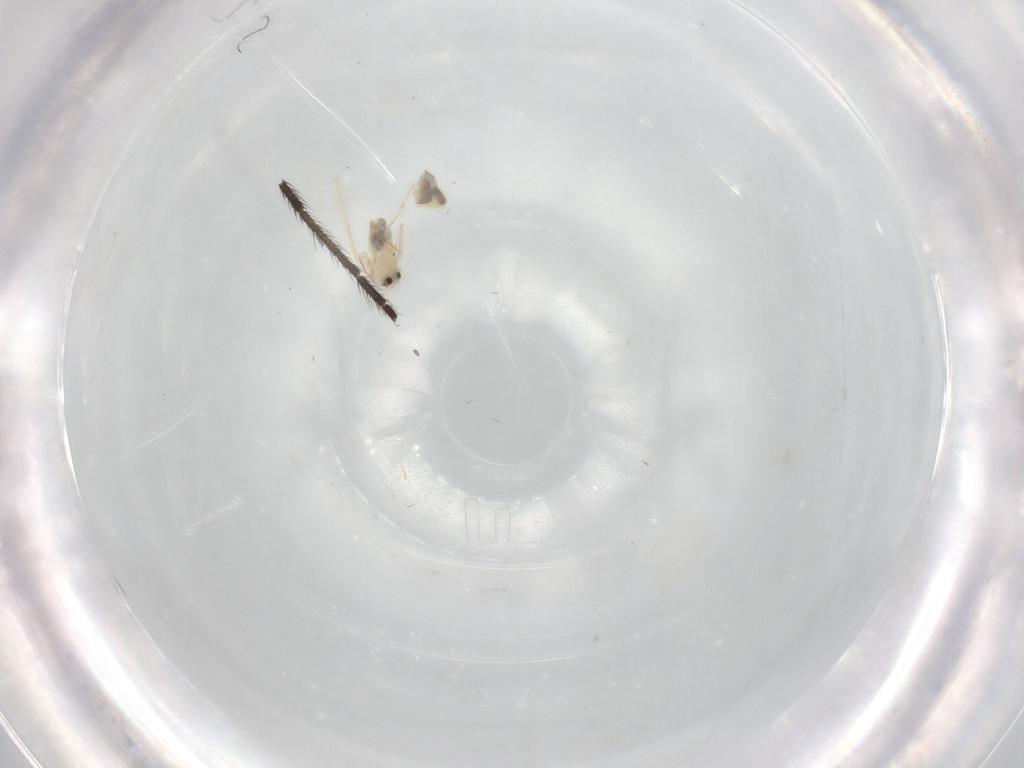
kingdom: Animalia
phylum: Arthropoda
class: Insecta
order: Hemiptera
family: Aleyrodidae
